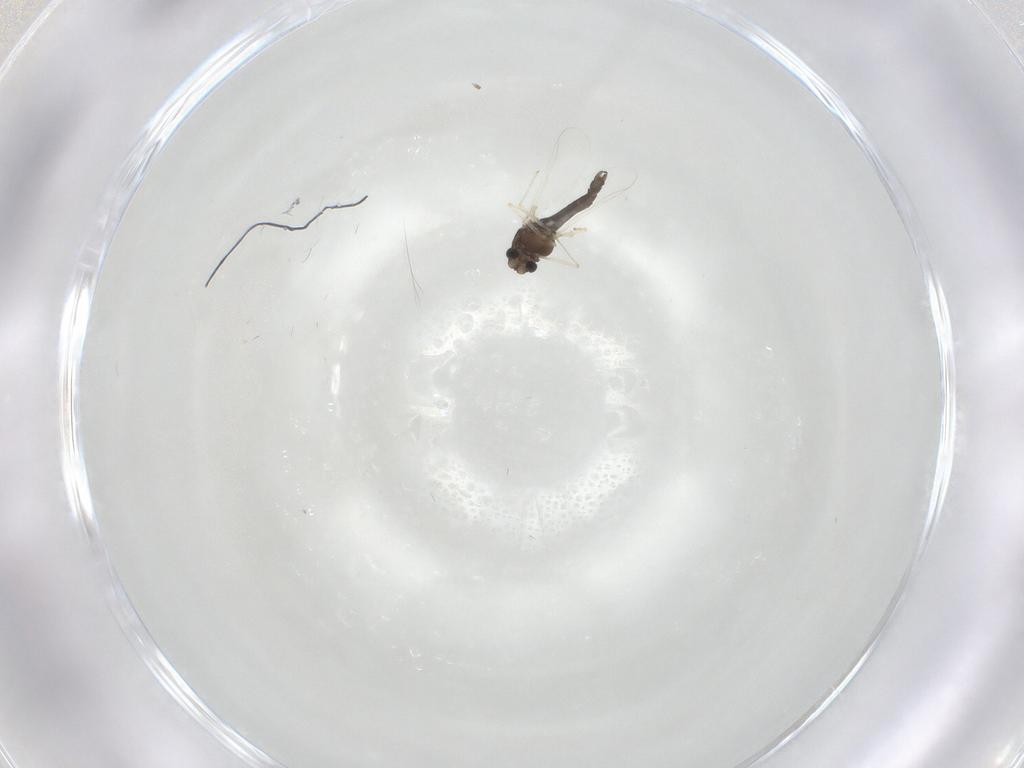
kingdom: Animalia
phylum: Arthropoda
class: Insecta
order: Diptera
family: Chironomidae
